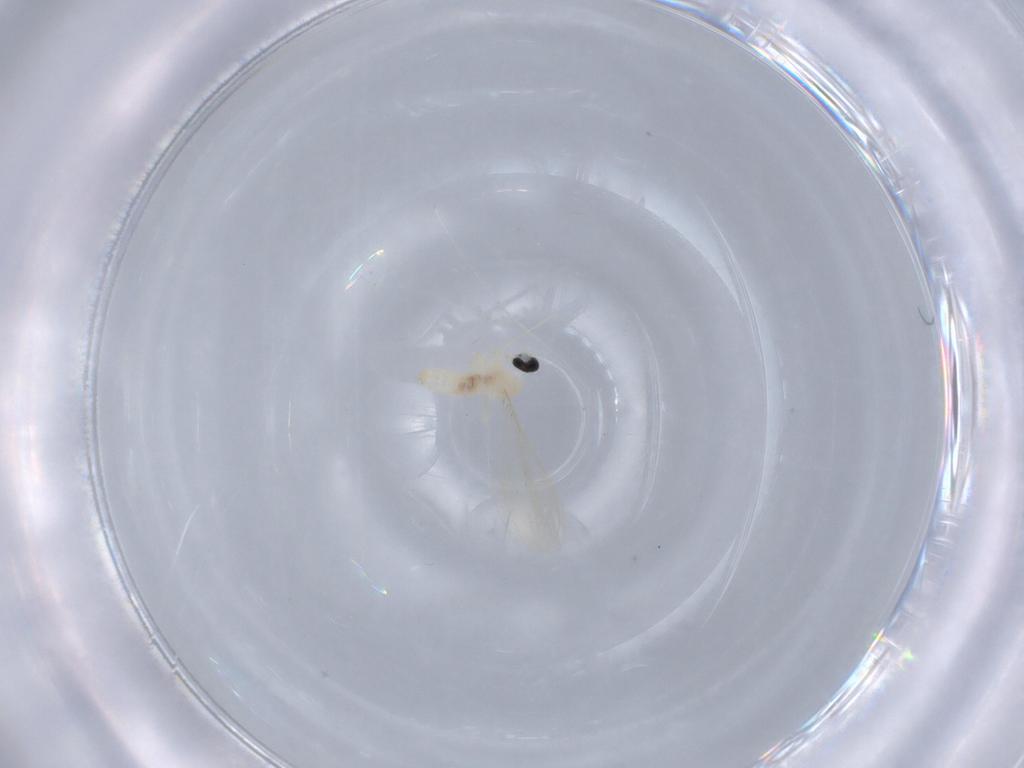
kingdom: Animalia
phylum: Arthropoda
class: Insecta
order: Diptera
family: Cecidomyiidae
